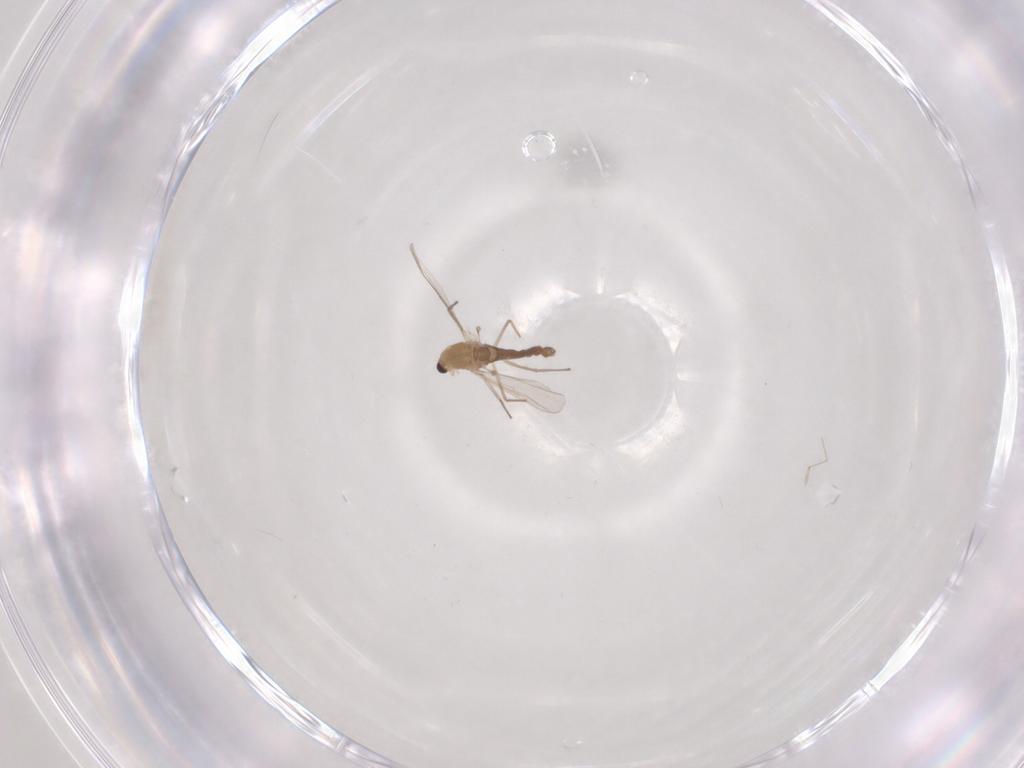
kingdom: Animalia
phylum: Arthropoda
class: Insecta
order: Diptera
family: Chironomidae
